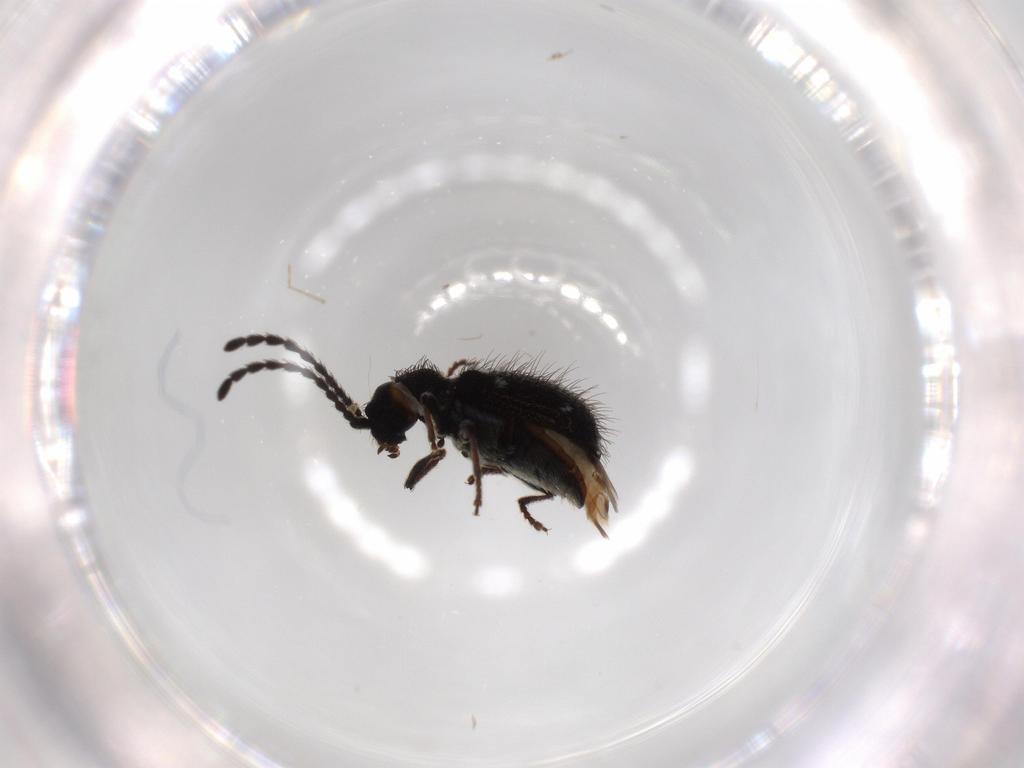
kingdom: Animalia
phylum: Arthropoda
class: Insecta
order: Coleoptera
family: Ptinidae
